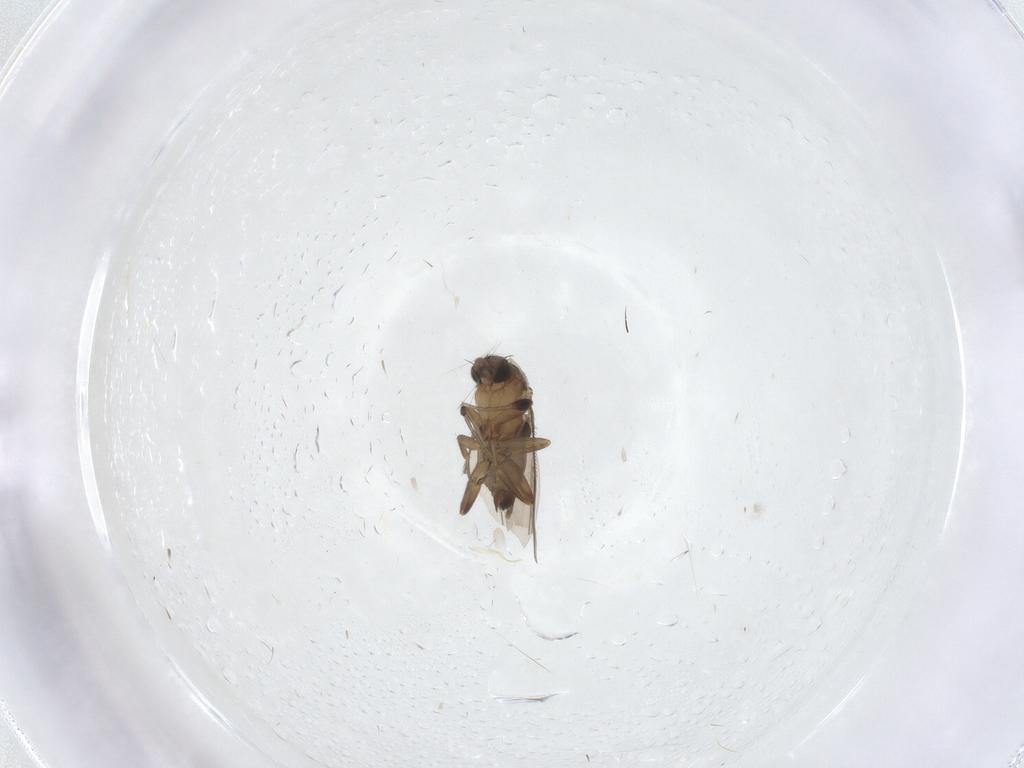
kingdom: Animalia
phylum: Arthropoda
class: Insecta
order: Diptera
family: Phoridae
